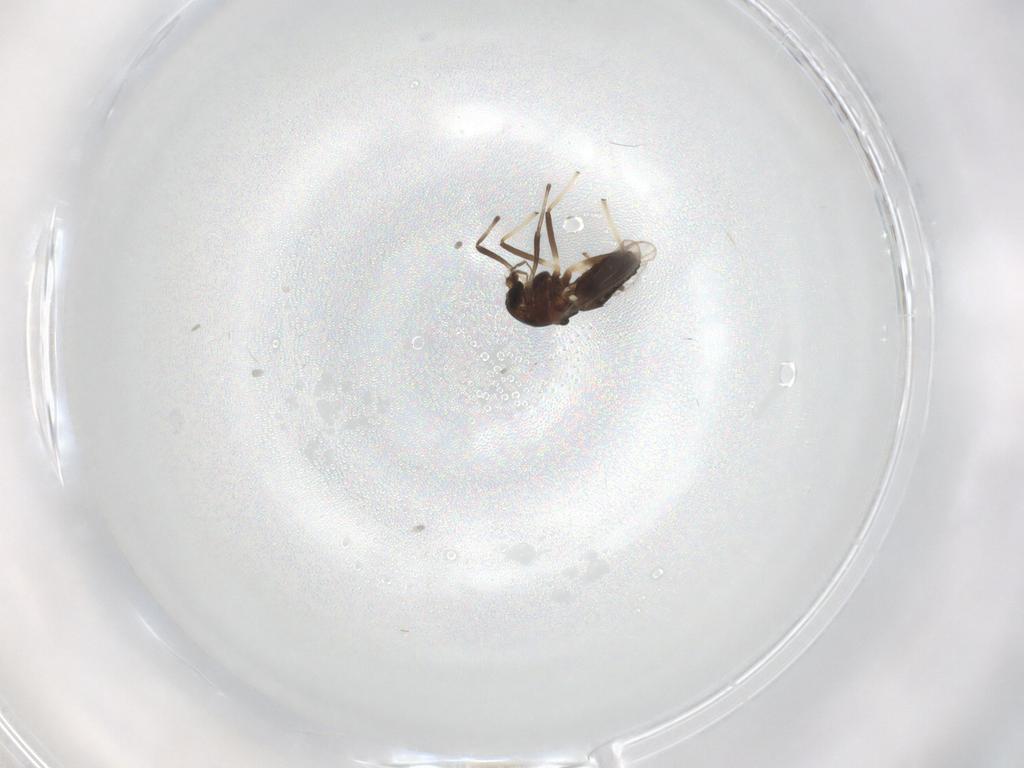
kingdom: Animalia
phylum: Arthropoda
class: Insecta
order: Diptera
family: Chironomidae
